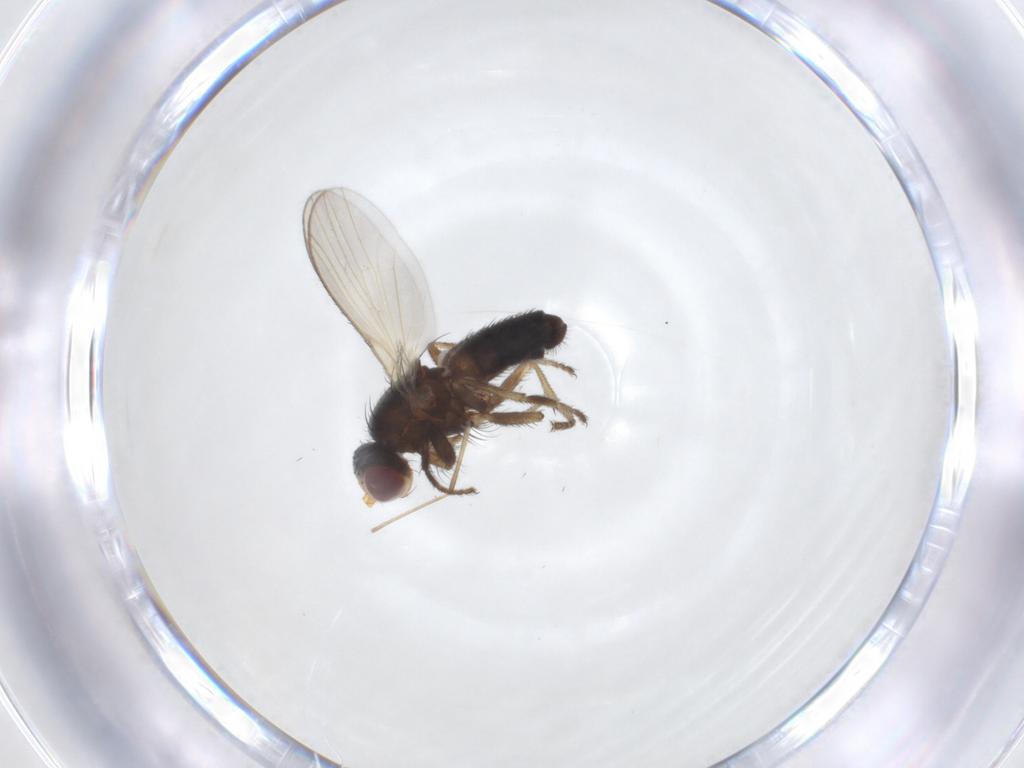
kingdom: Animalia
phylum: Arthropoda
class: Insecta
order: Diptera
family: Heleomyzidae
